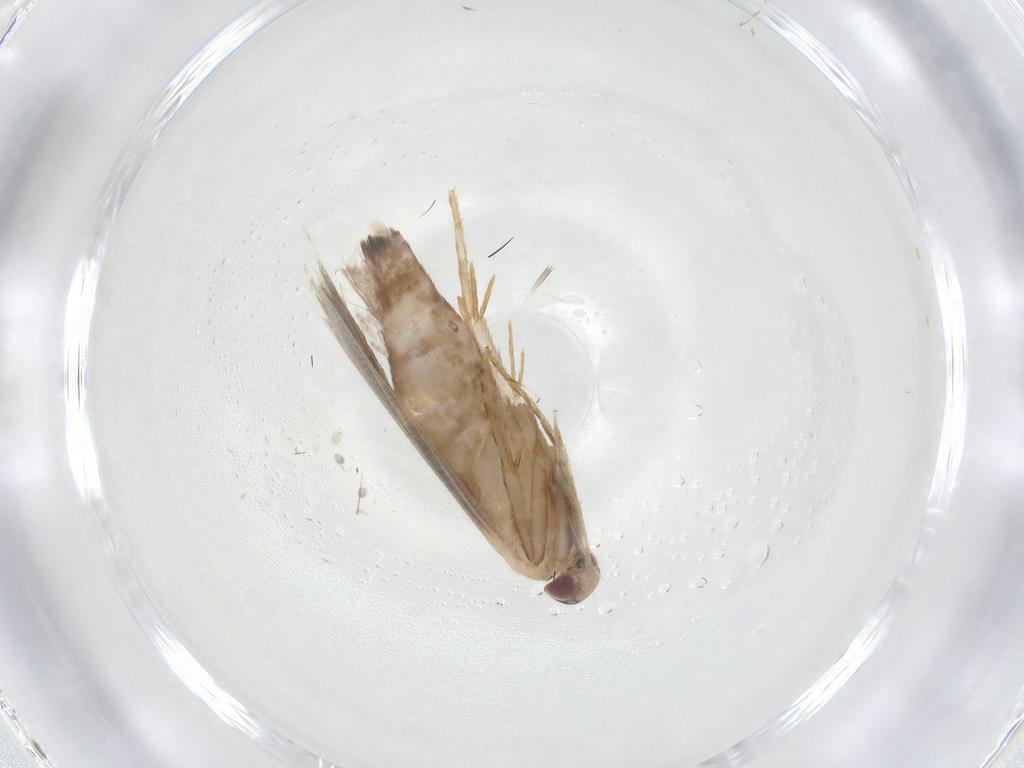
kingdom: Animalia
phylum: Arthropoda
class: Insecta
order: Lepidoptera
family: Gelechiidae
